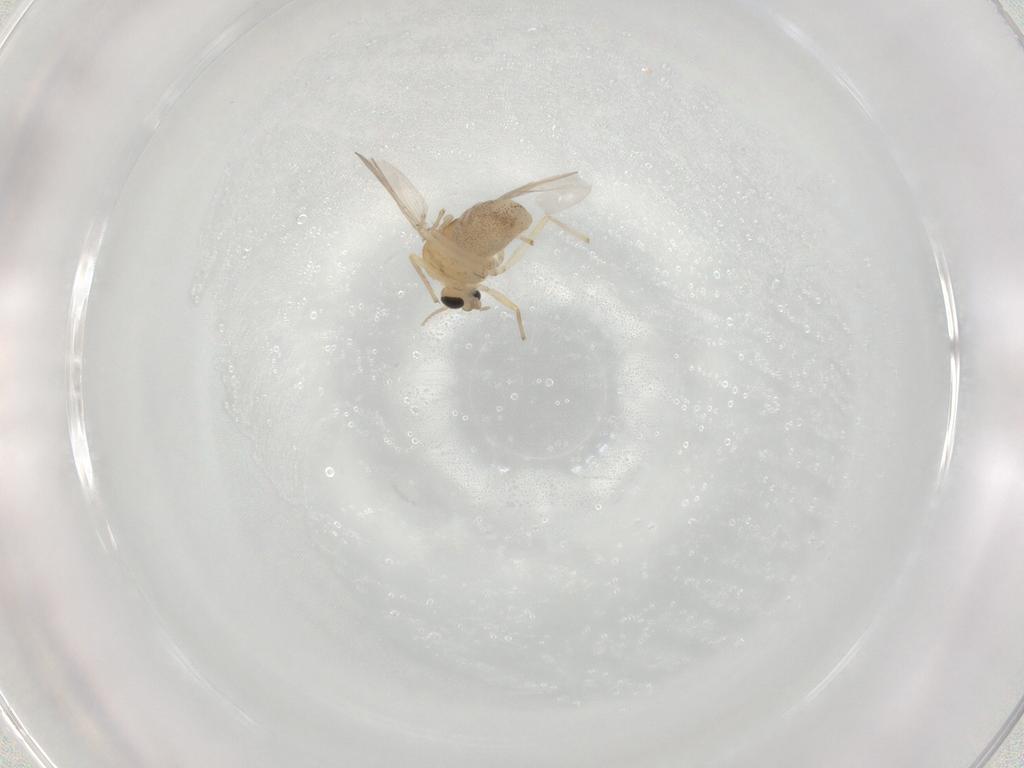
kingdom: Animalia
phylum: Arthropoda
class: Insecta
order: Diptera
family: Chironomidae
